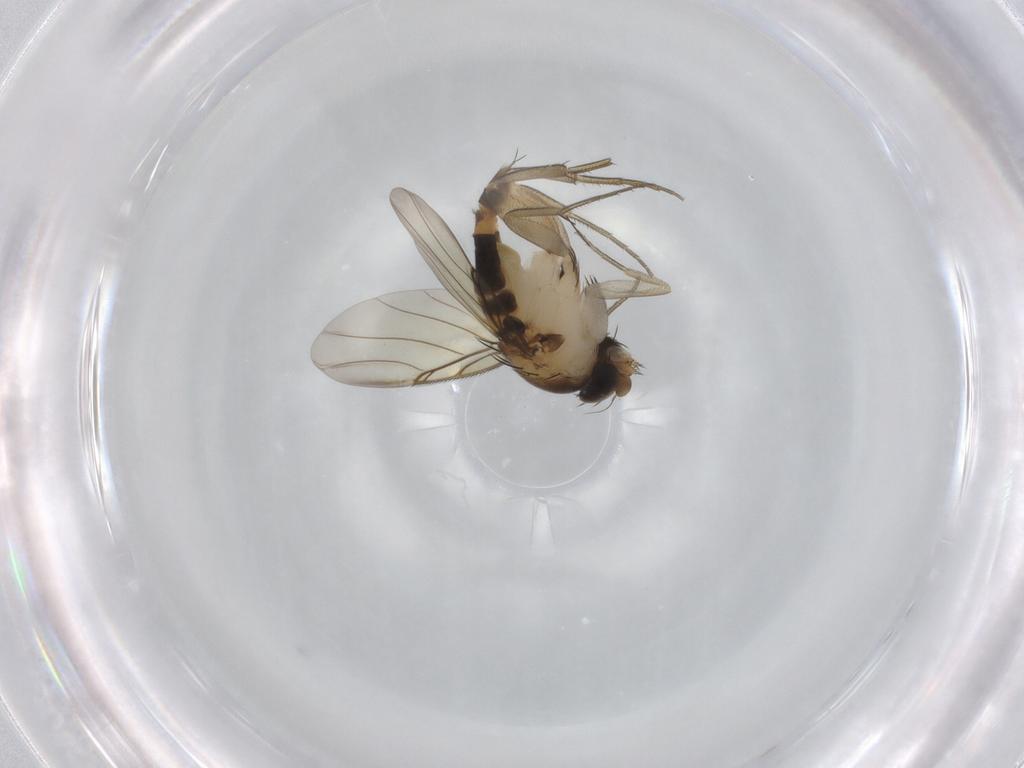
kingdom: Animalia
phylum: Arthropoda
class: Insecta
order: Diptera
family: Phoridae
